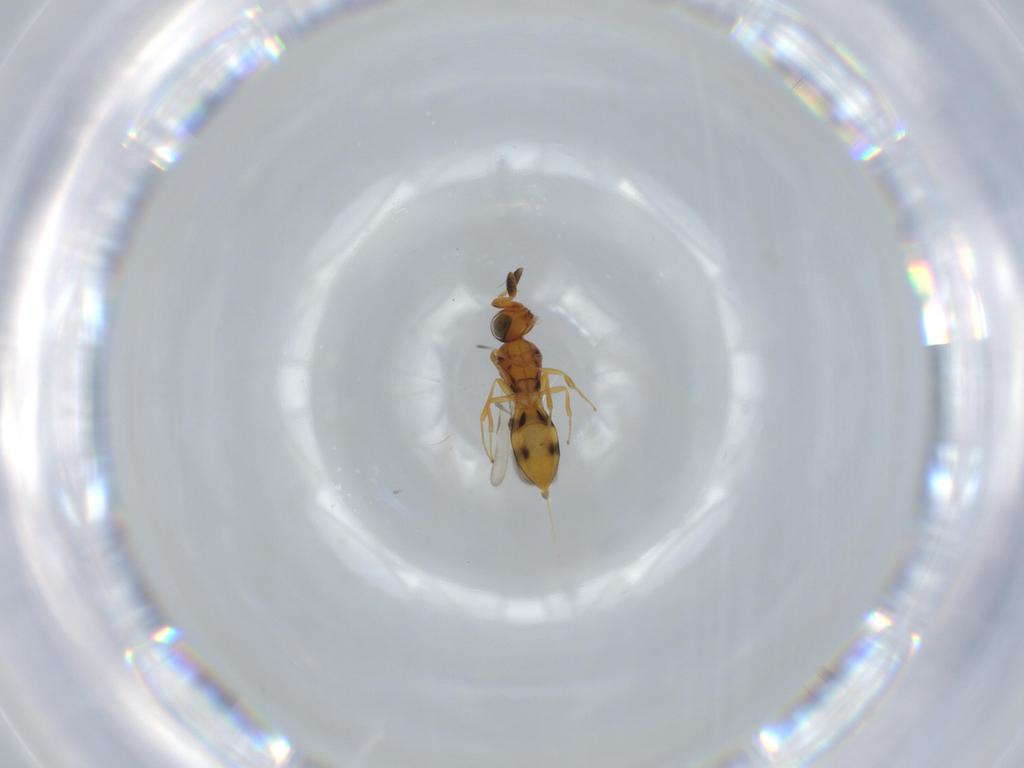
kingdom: Animalia
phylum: Arthropoda
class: Insecta
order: Hymenoptera
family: Scelionidae
